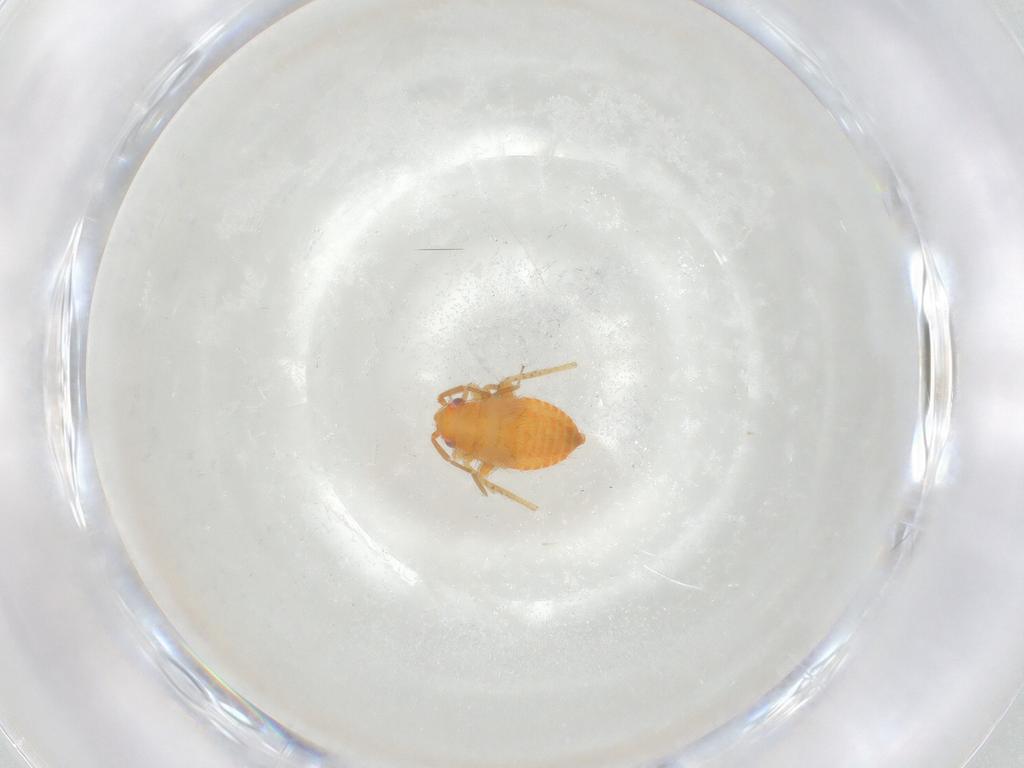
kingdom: Animalia
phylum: Arthropoda
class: Insecta
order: Hemiptera
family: Miridae
